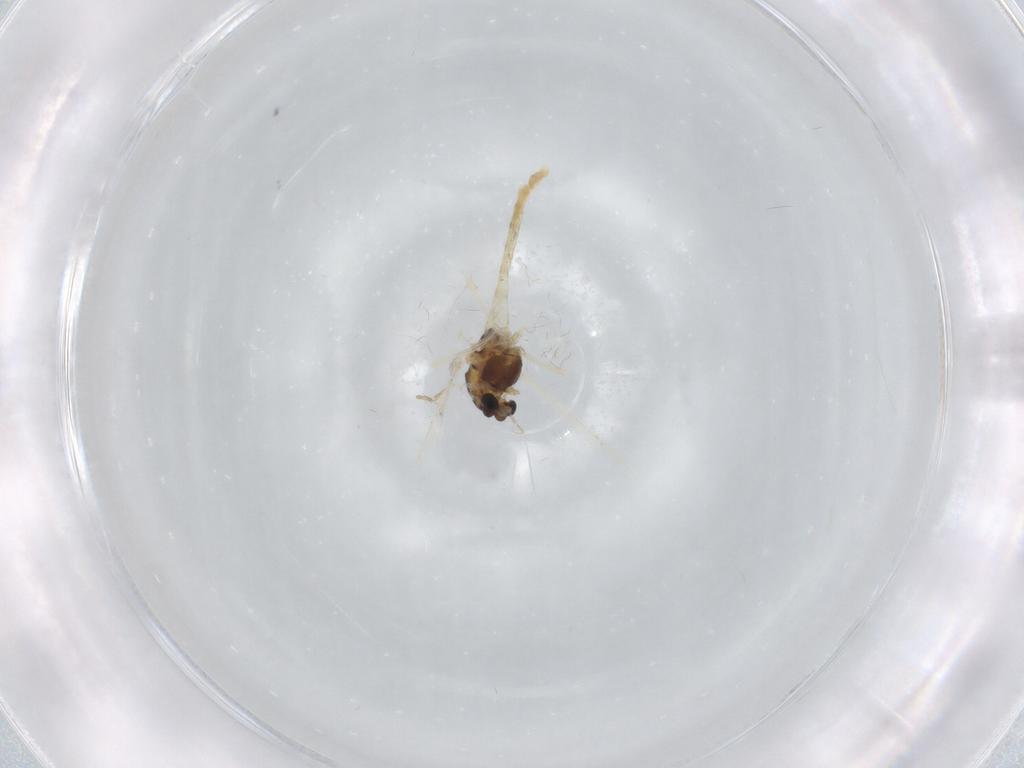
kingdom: Animalia
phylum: Arthropoda
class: Insecta
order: Diptera
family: Chironomidae
